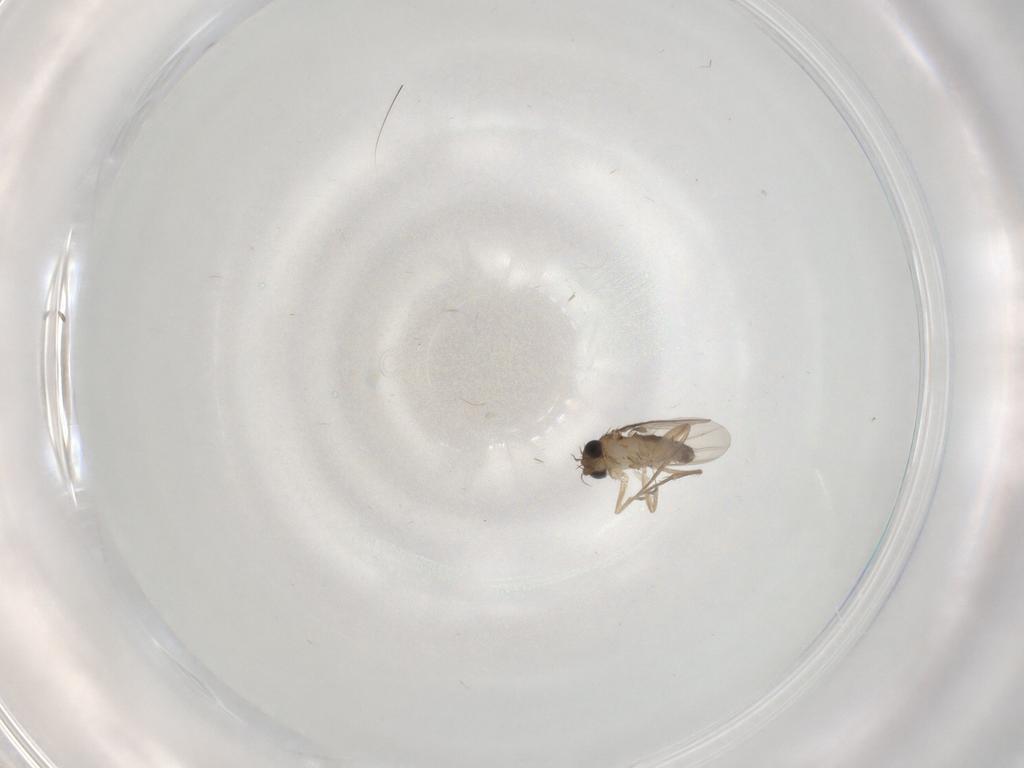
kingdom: Animalia
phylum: Arthropoda
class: Insecta
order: Diptera
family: Phoridae
